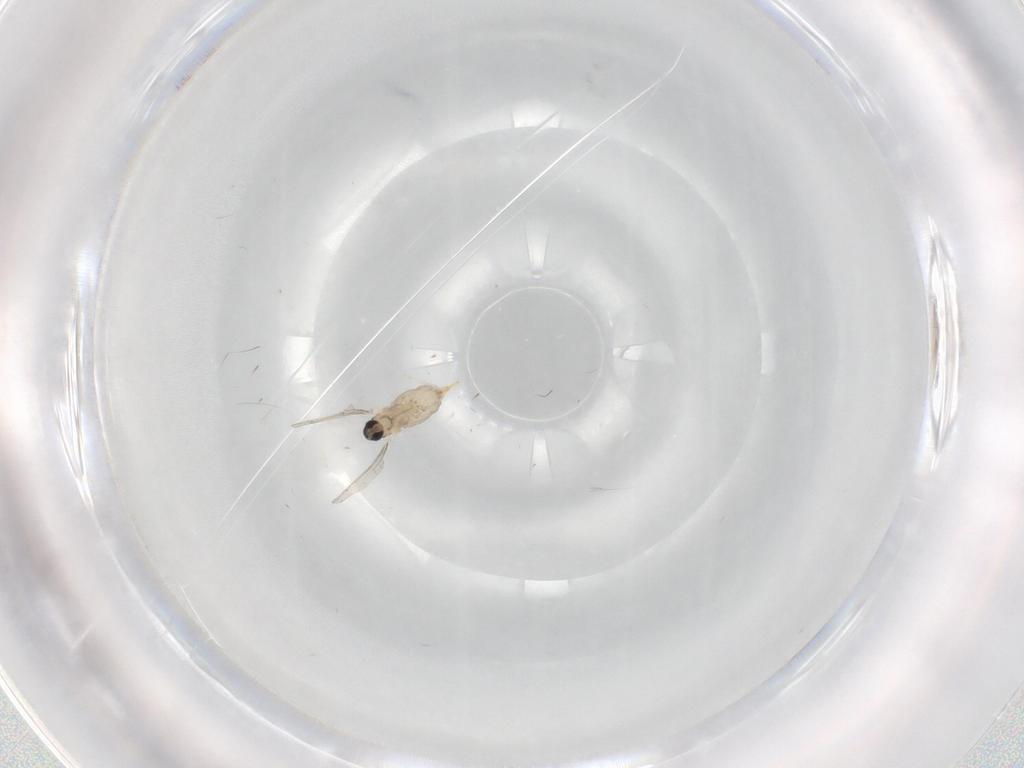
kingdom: Animalia
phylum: Arthropoda
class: Insecta
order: Diptera
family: Cecidomyiidae
